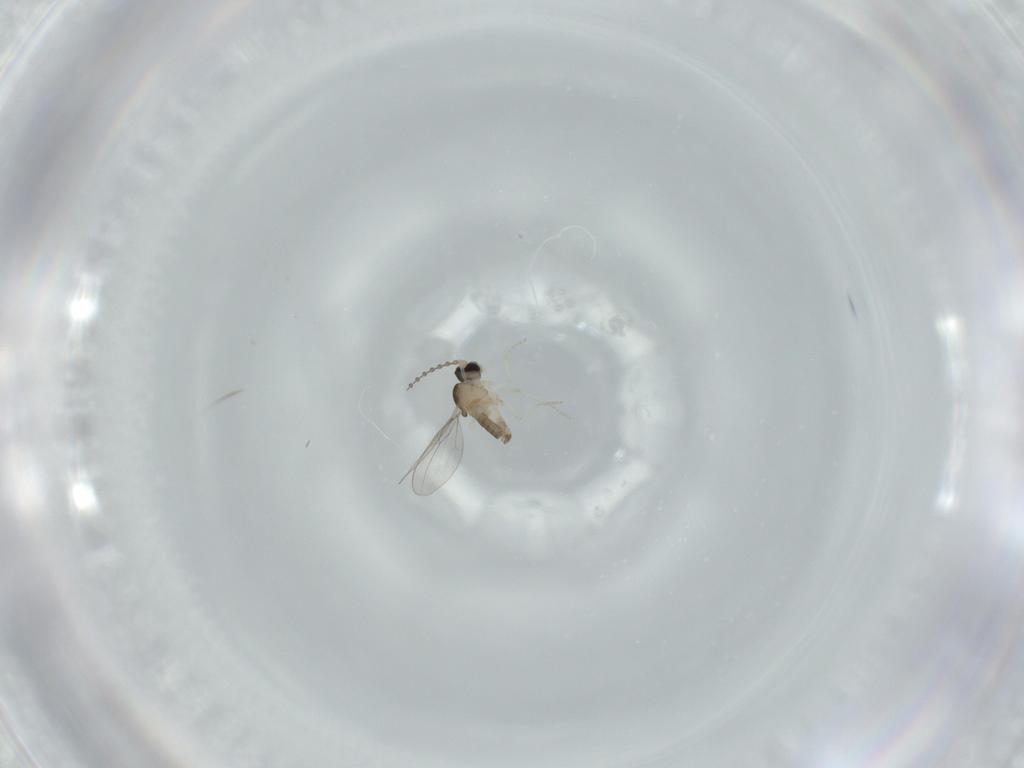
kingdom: Animalia
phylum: Arthropoda
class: Insecta
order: Diptera
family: Cecidomyiidae
